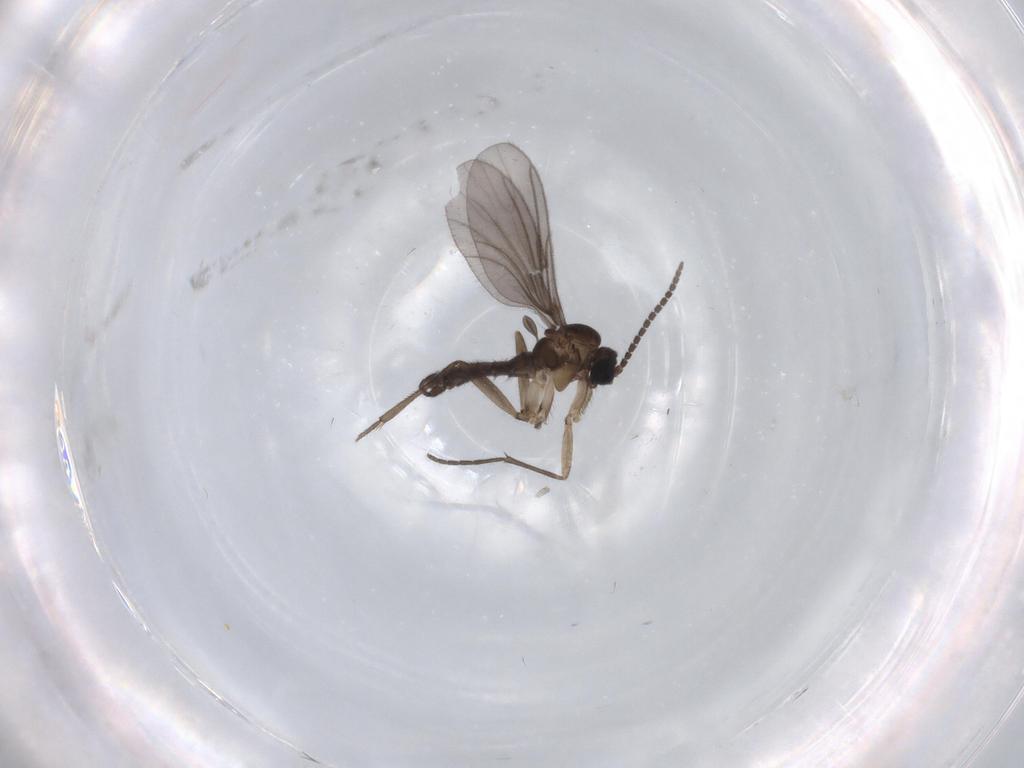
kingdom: Animalia
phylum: Arthropoda
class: Insecta
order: Diptera
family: Sciaridae
